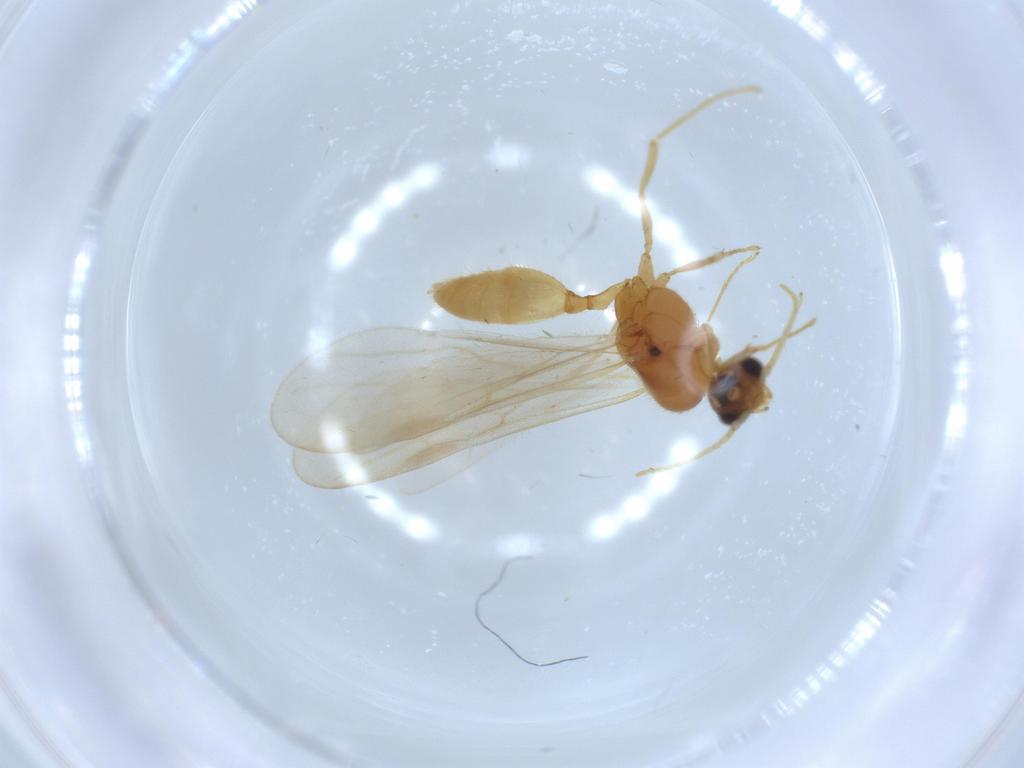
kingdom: Animalia
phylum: Arthropoda
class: Insecta
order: Hymenoptera
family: Formicidae
